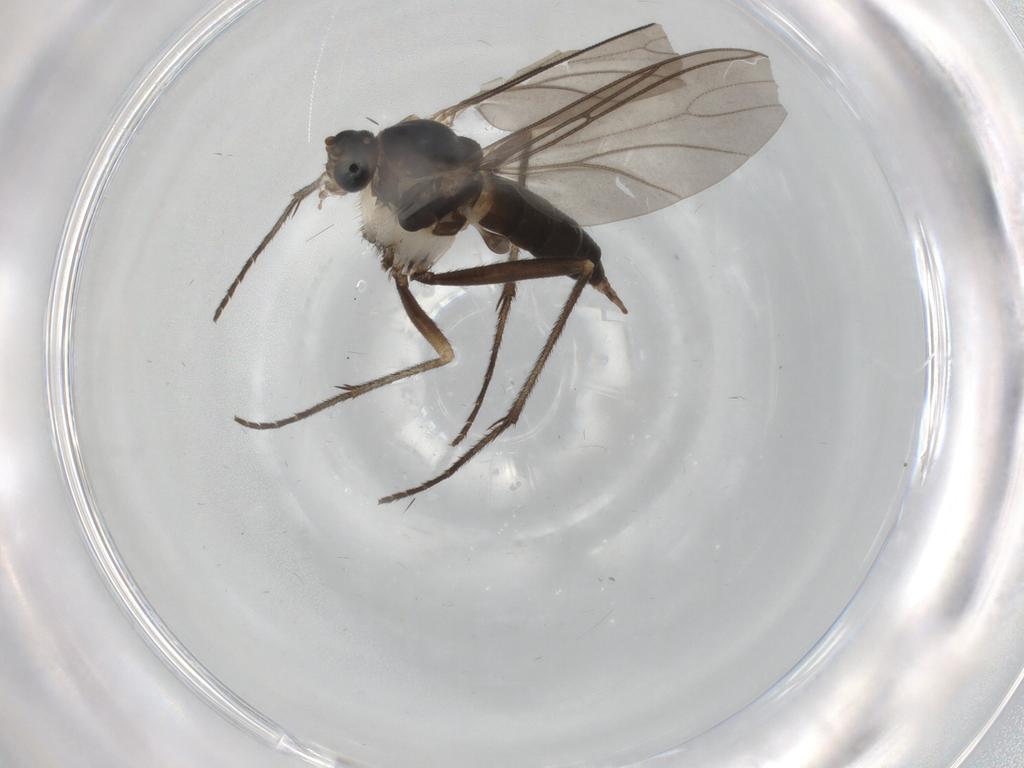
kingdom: Animalia
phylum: Arthropoda
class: Insecta
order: Diptera
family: Sciaridae
